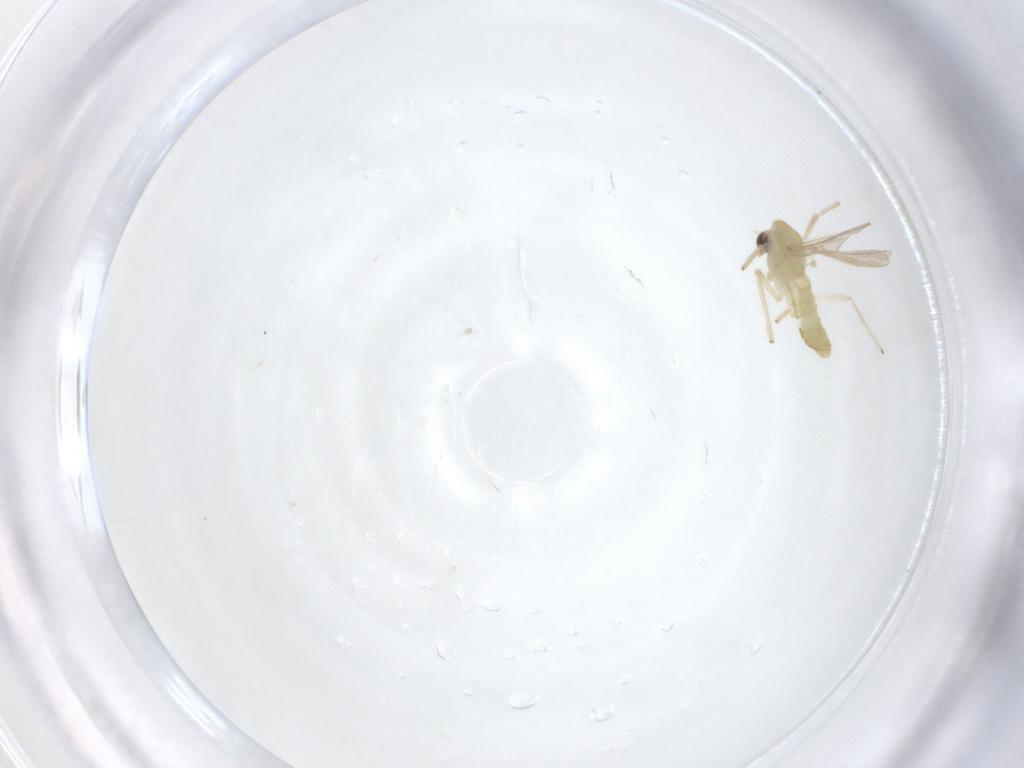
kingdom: Animalia
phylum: Arthropoda
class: Insecta
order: Diptera
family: Chironomidae
